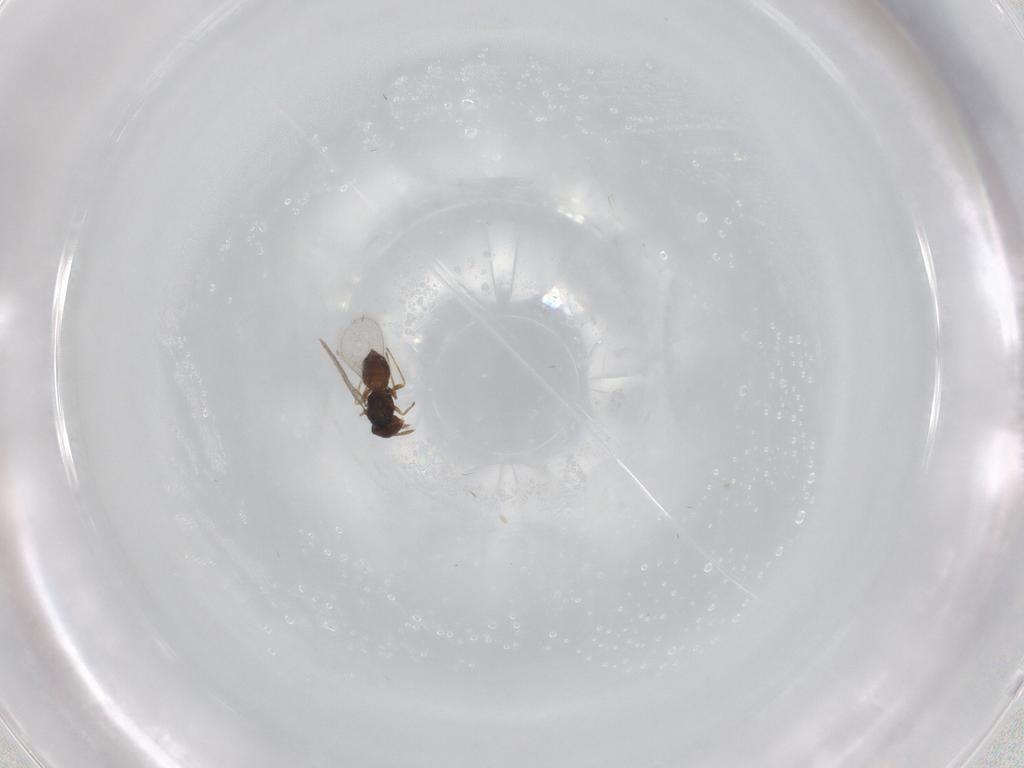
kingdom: Animalia
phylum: Arthropoda
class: Insecta
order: Hymenoptera
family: Eulophidae
